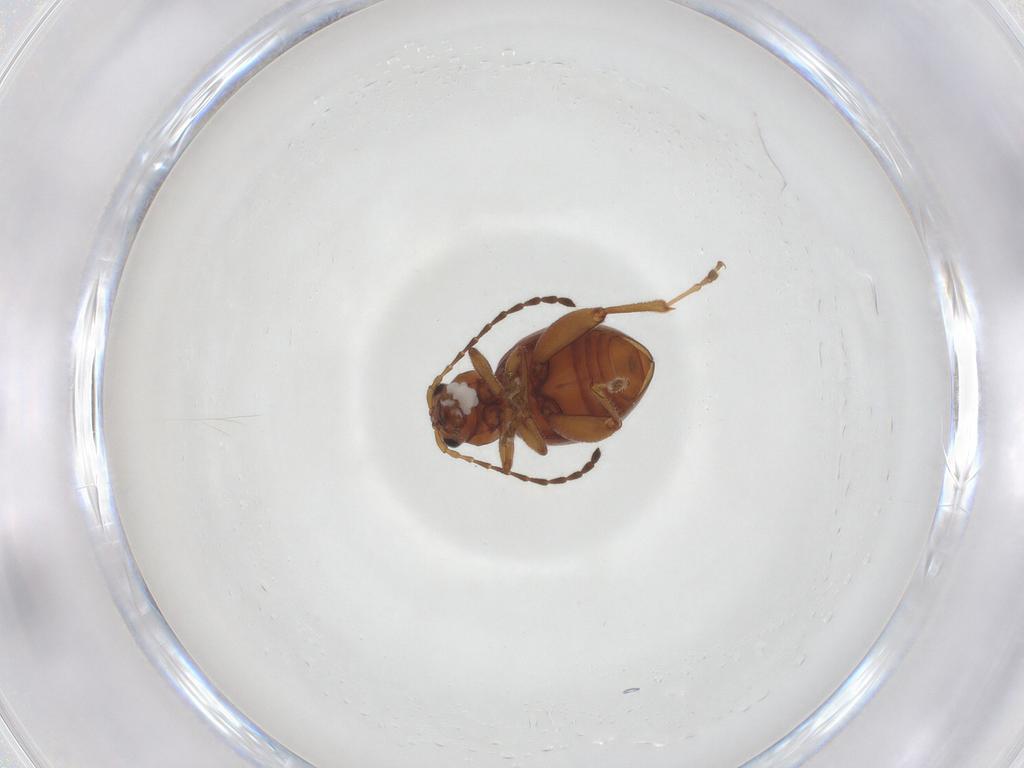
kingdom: Animalia
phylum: Arthropoda
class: Insecta
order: Coleoptera
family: Chrysomelidae
